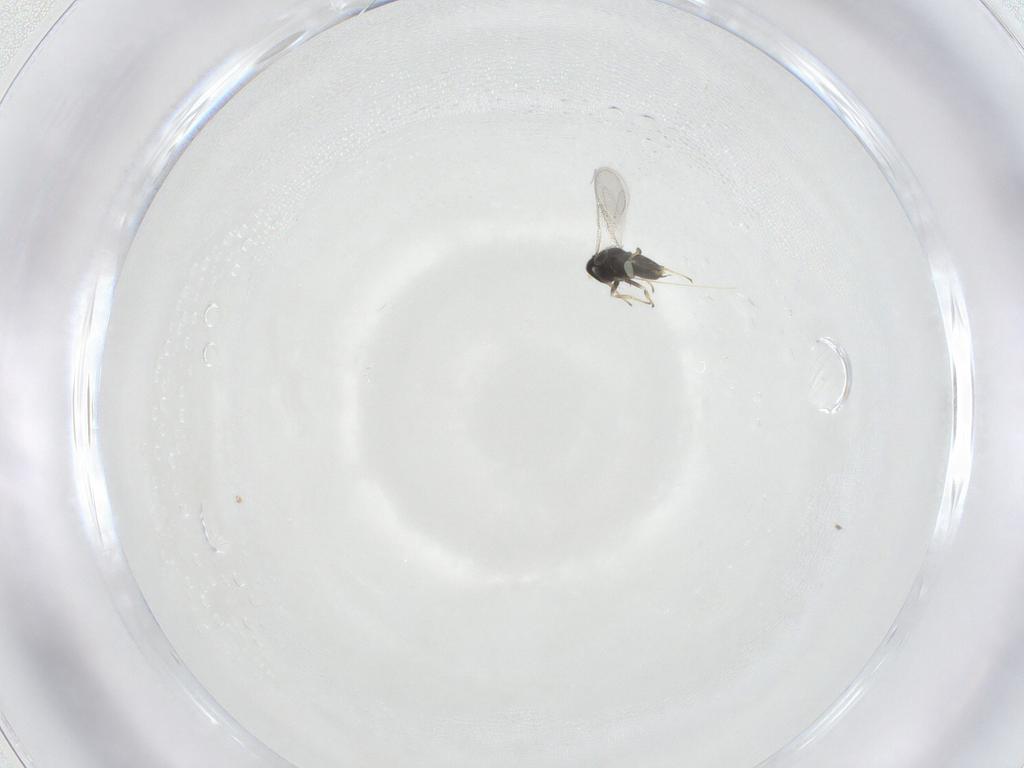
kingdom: Animalia
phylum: Arthropoda
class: Insecta
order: Hymenoptera
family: Aphelinidae
